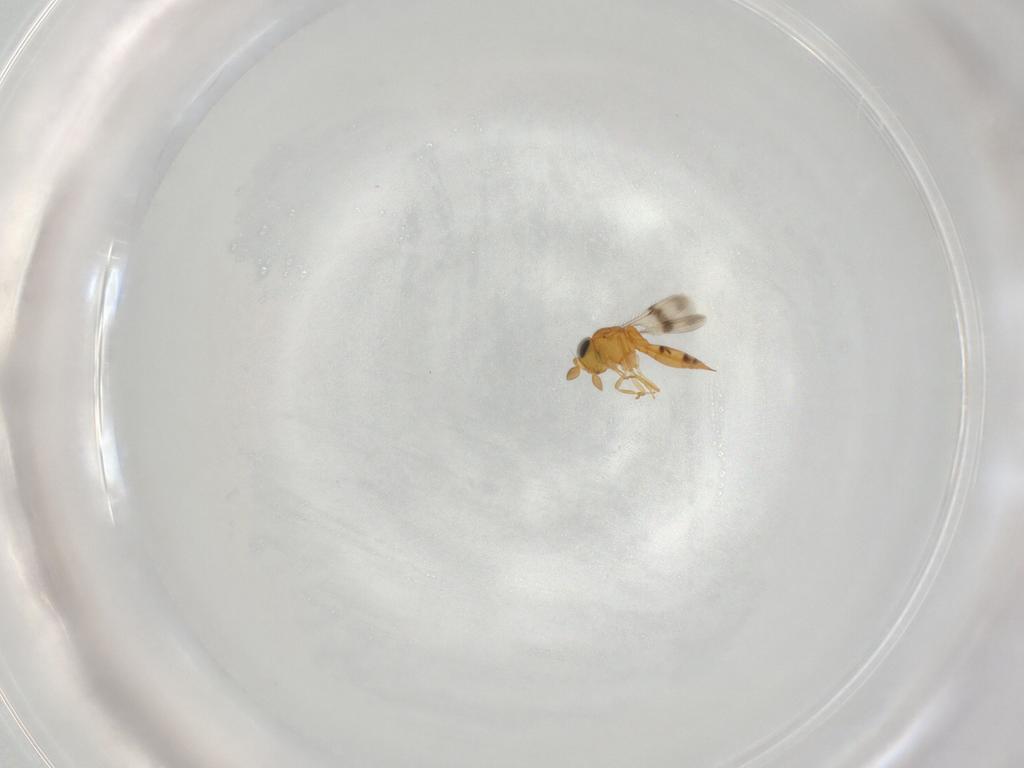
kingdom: Animalia
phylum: Arthropoda
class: Insecta
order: Hymenoptera
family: Scelionidae
